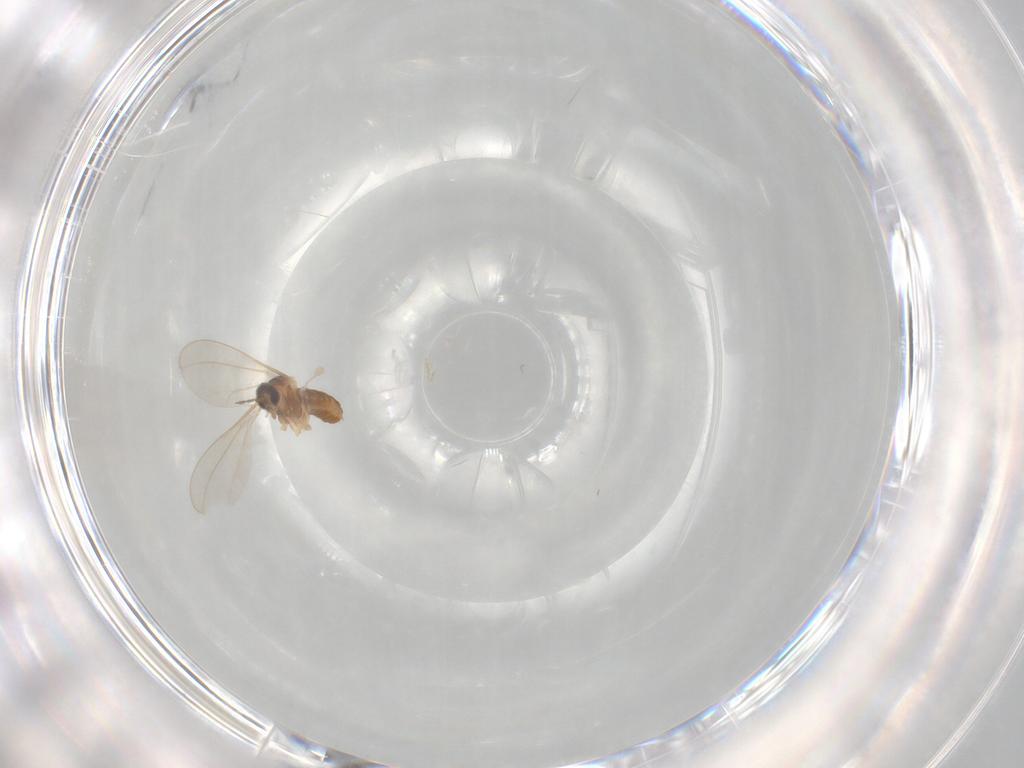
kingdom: Animalia
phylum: Arthropoda
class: Insecta
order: Diptera
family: Cecidomyiidae
